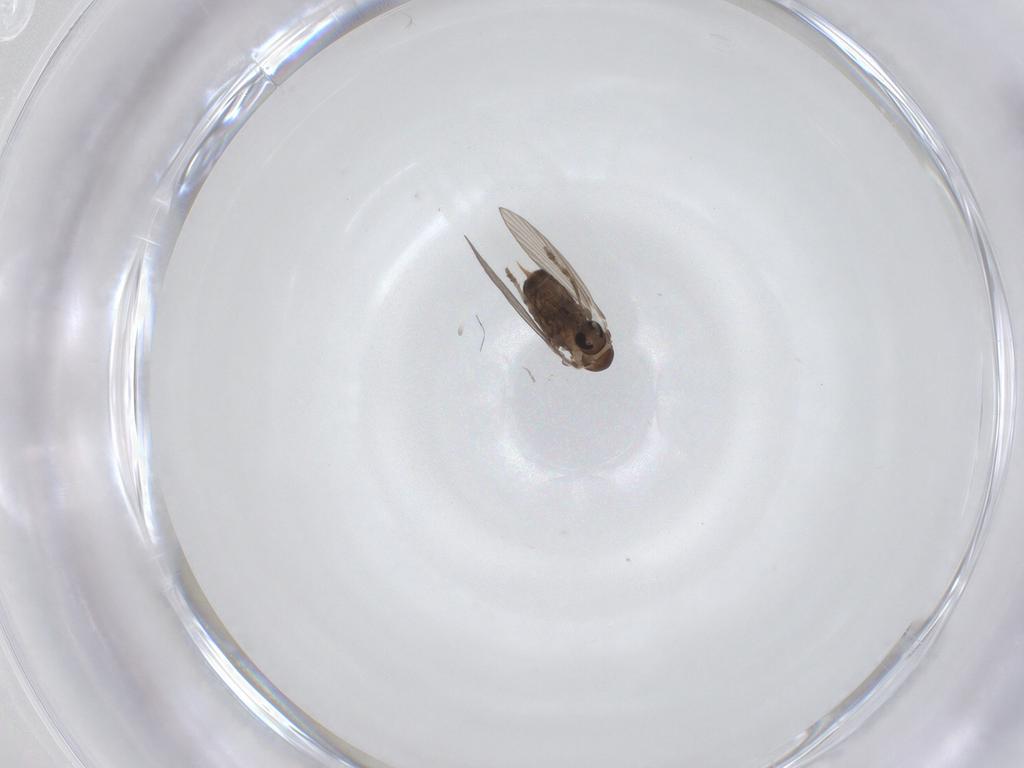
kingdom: Animalia
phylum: Arthropoda
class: Insecta
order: Diptera
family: Psychodidae
